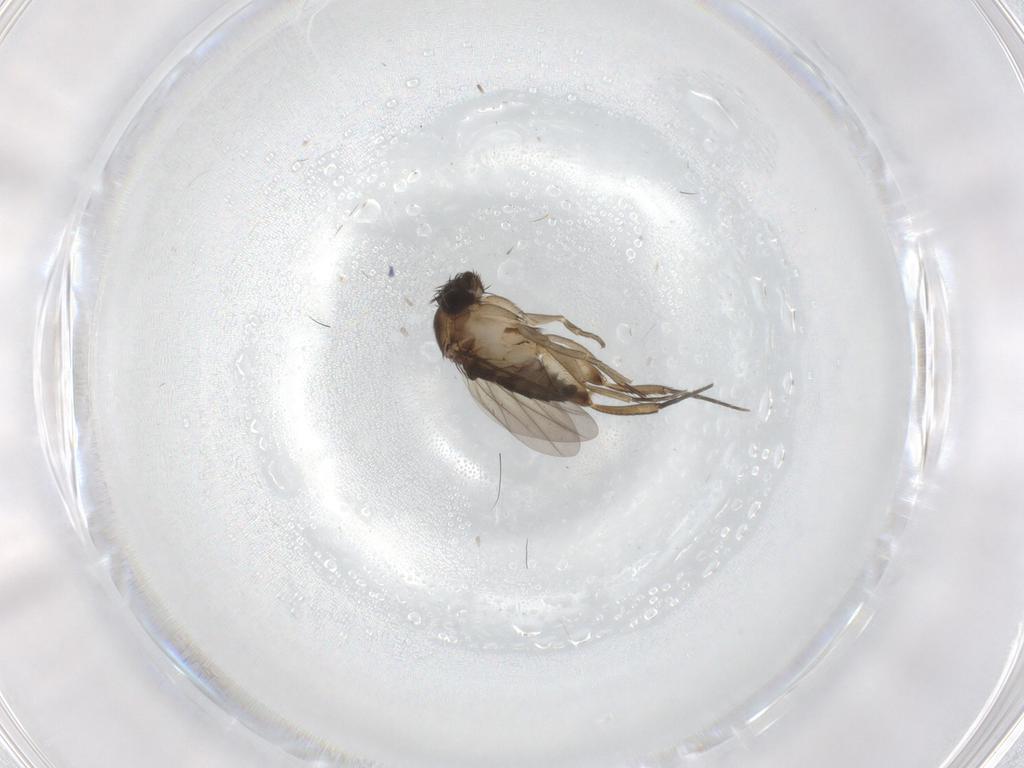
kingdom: Animalia
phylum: Arthropoda
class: Insecta
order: Diptera
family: Phoridae
